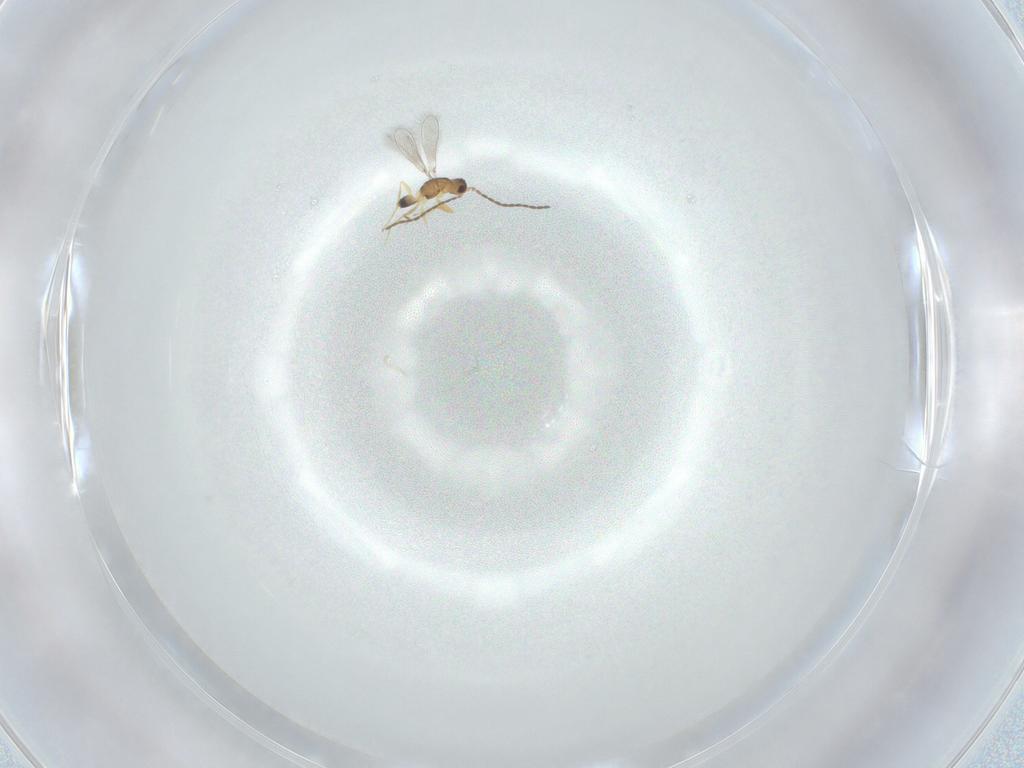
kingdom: Animalia
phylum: Arthropoda
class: Insecta
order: Hymenoptera
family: Mymaridae
